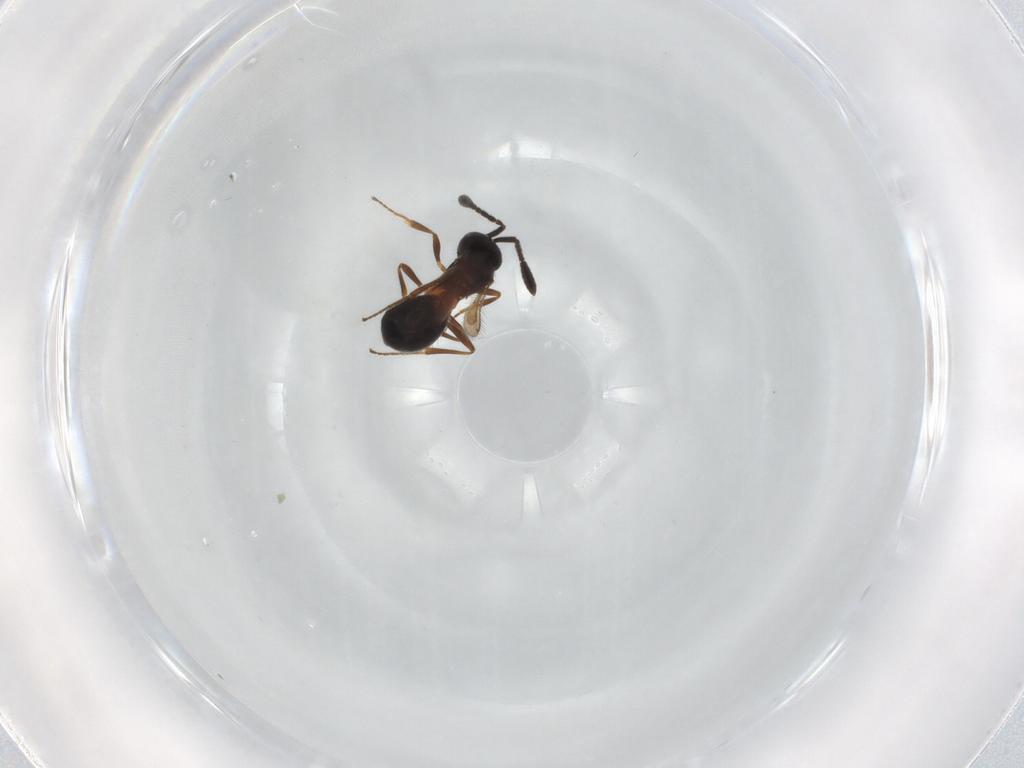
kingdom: Animalia
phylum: Arthropoda
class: Insecta
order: Hymenoptera
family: Scelionidae
